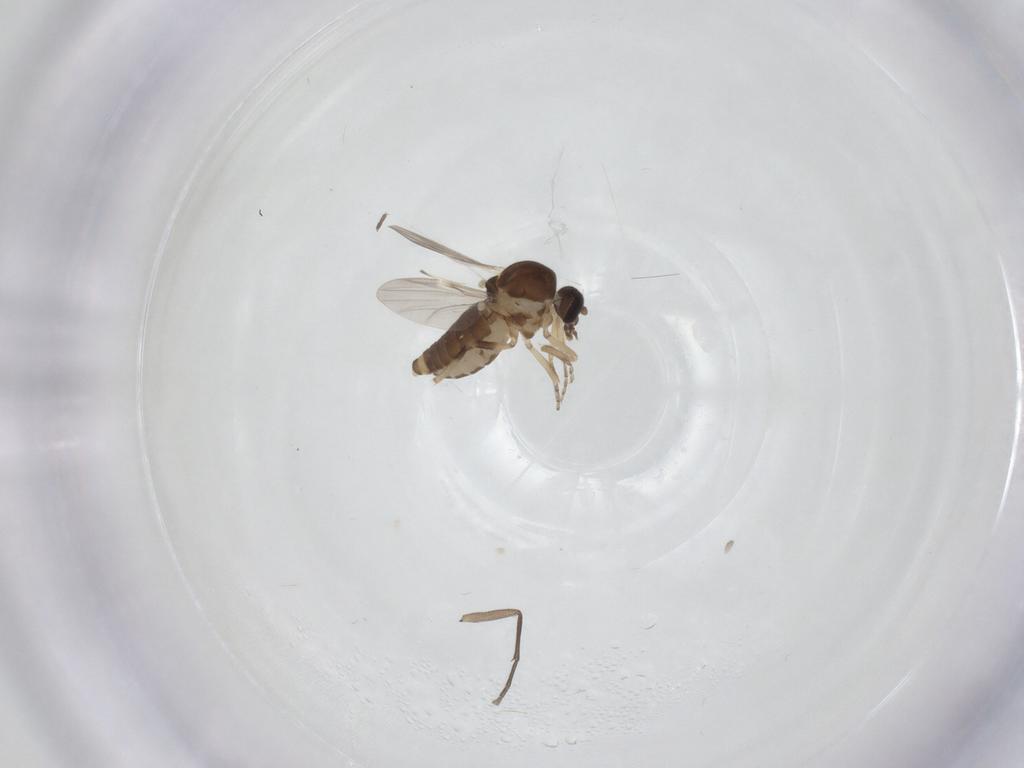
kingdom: Animalia
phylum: Arthropoda
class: Insecta
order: Diptera
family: Ceratopogonidae
